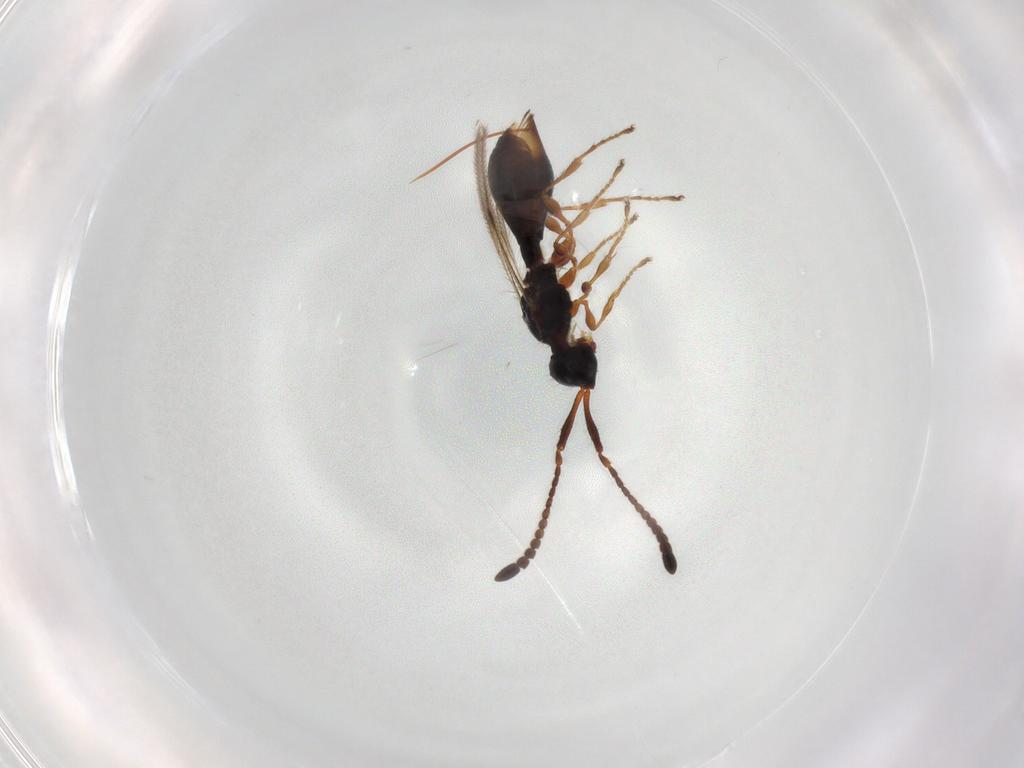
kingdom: Animalia
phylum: Arthropoda
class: Insecta
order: Hymenoptera
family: Diapriidae
